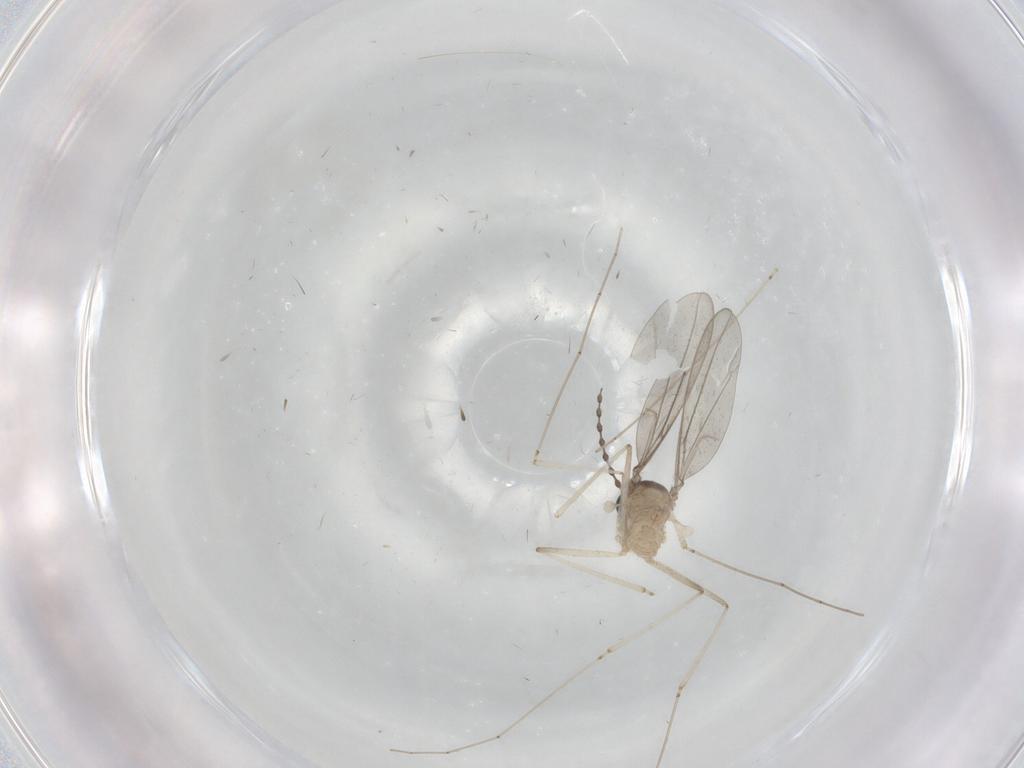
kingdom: Animalia
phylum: Arthropoda
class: Insecta
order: Diptera
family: Cecidomyiidae
